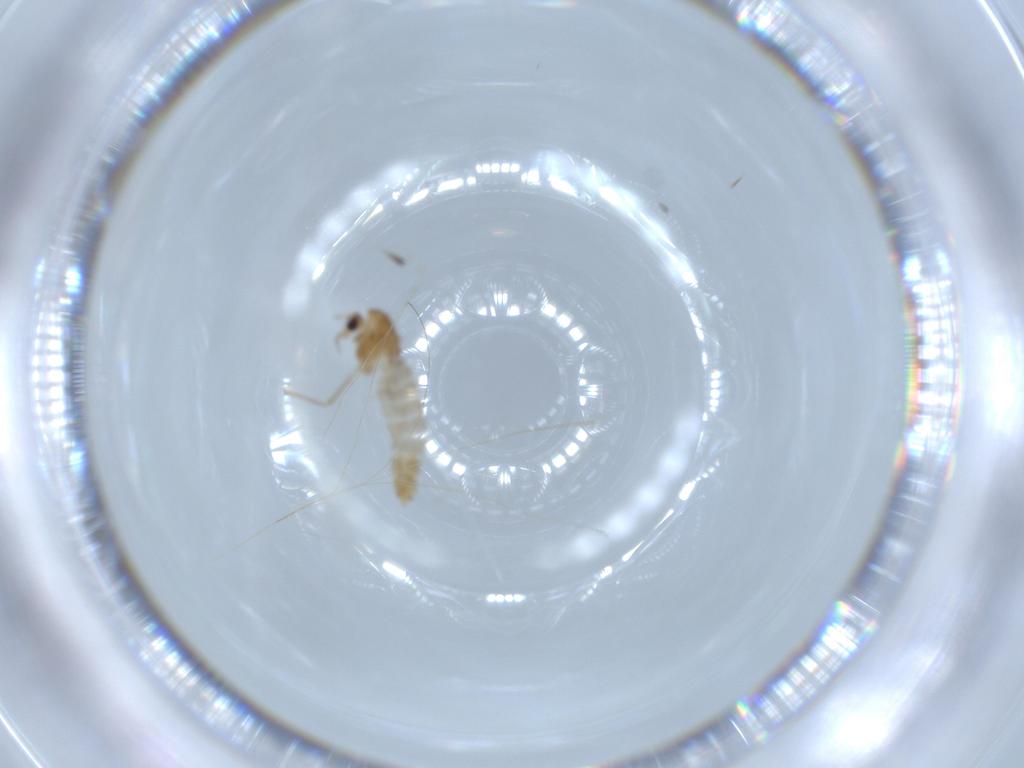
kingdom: Animalia
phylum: Arthropoda
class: Insecta
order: Diptera
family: Chironomidae
